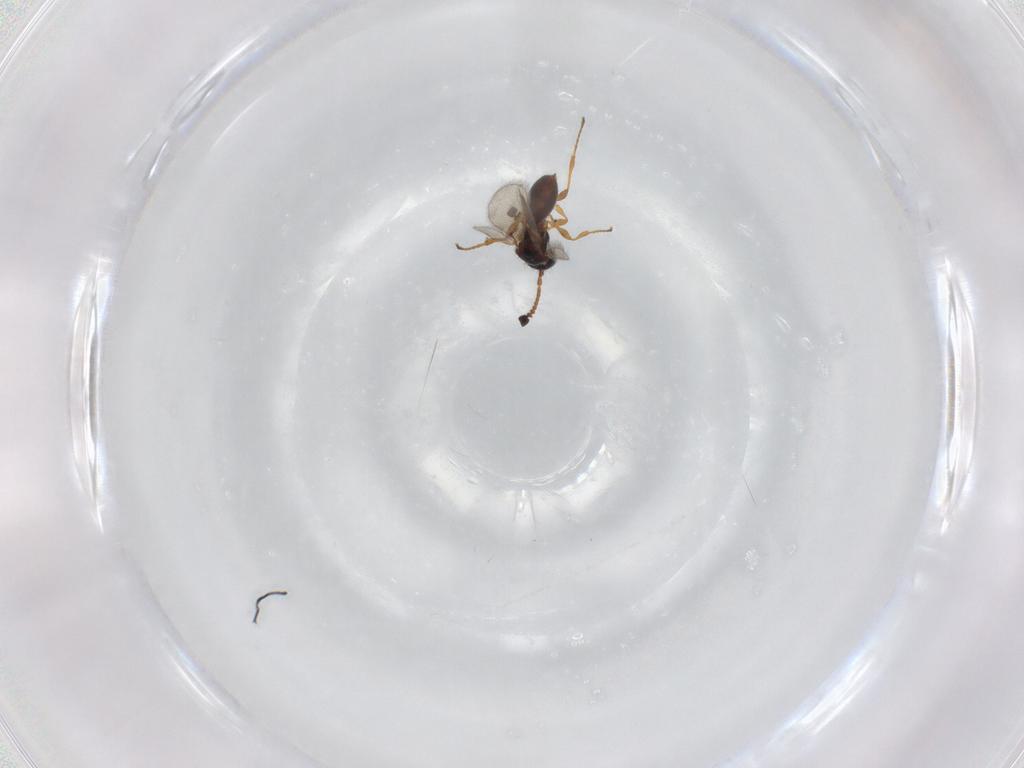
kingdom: Animalia
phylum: Arthropoda
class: Insecta
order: Hymenoptera
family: Diapriidae
